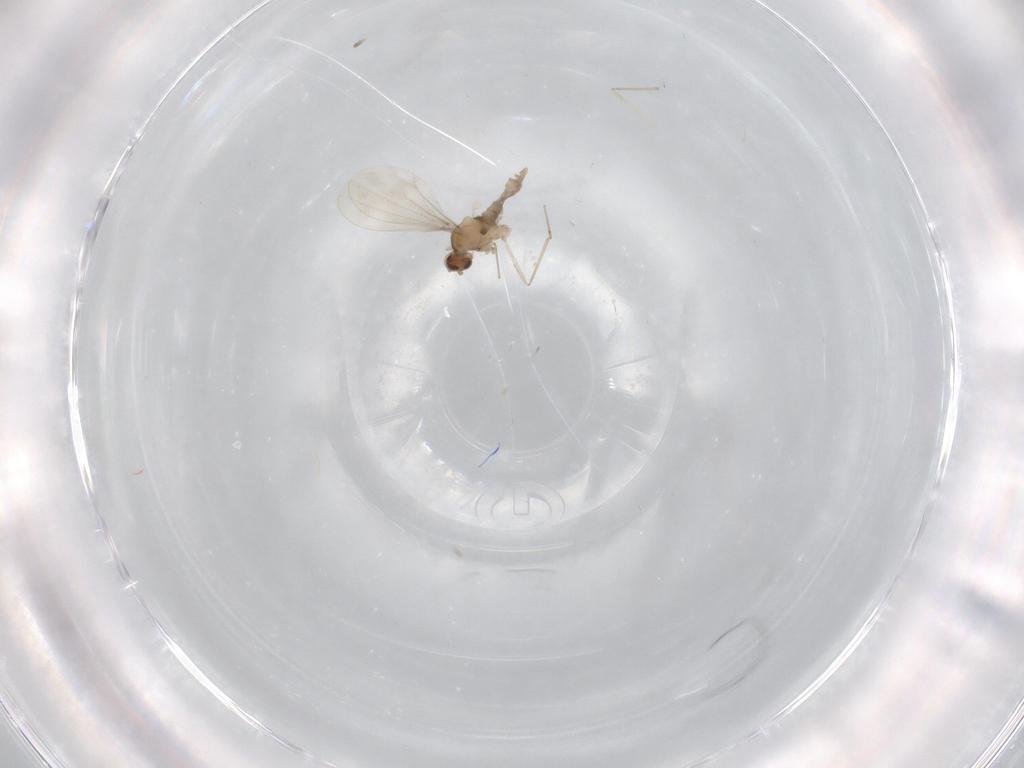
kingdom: Animalia
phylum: Arthropoda
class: Insecta
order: Diptera
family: Cecidomyiidae
